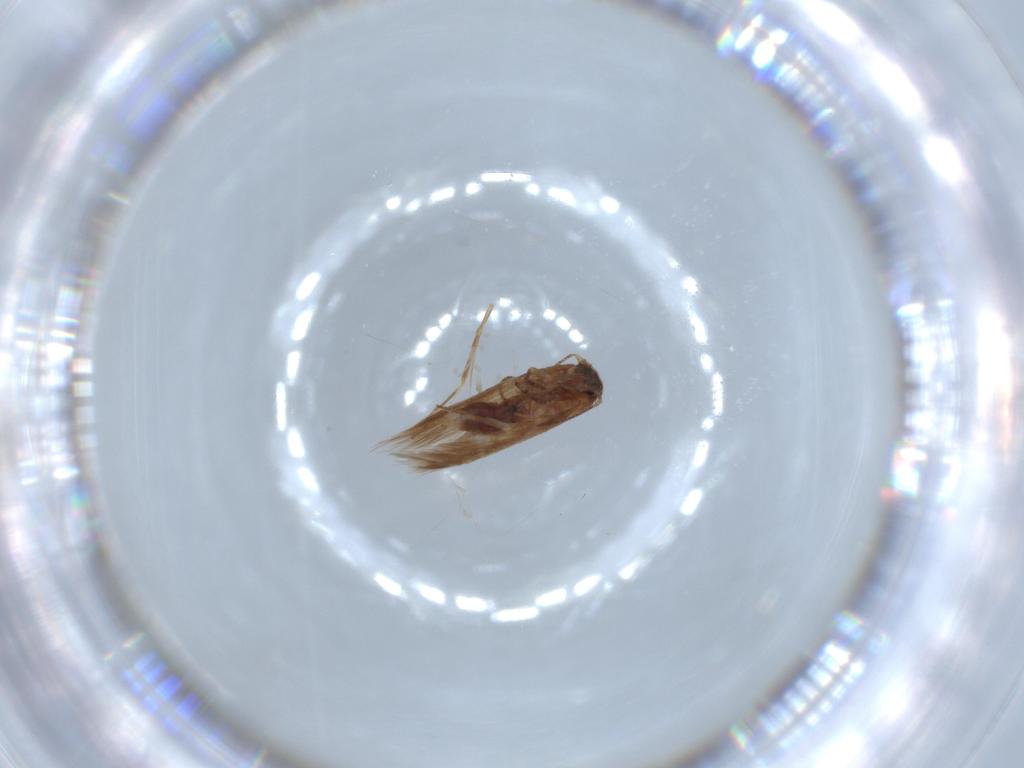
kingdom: Animalia
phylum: Arthropoda
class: Insecta
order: Lepidoptera
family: Lyonetiidae
